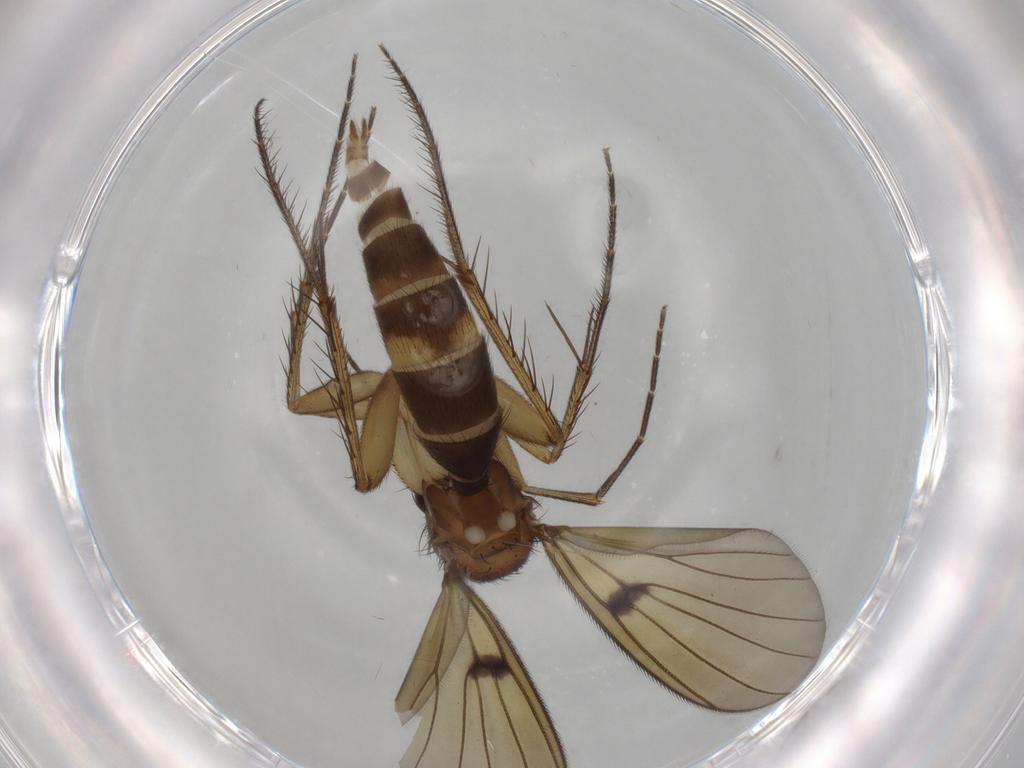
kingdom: Animalia
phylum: Arthropoda
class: Insecta
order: Diptera
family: Mycetophilidae
